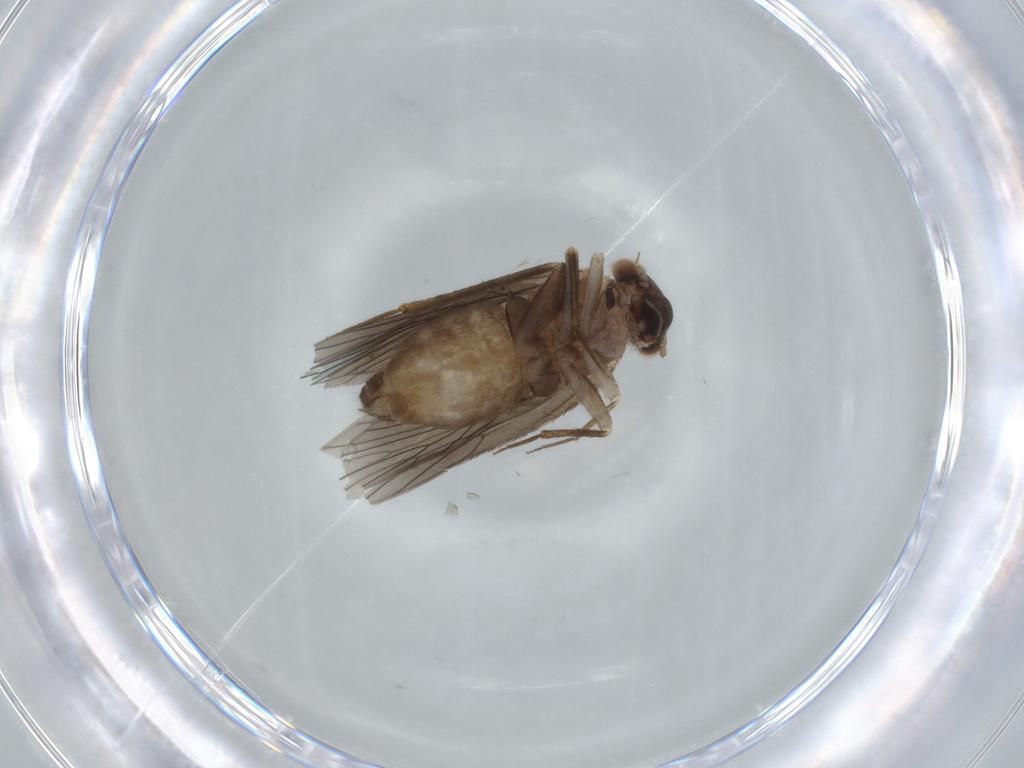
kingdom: Animalia
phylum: Arthropoda
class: Insecta
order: Psocodea
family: Lepidopsocidae
